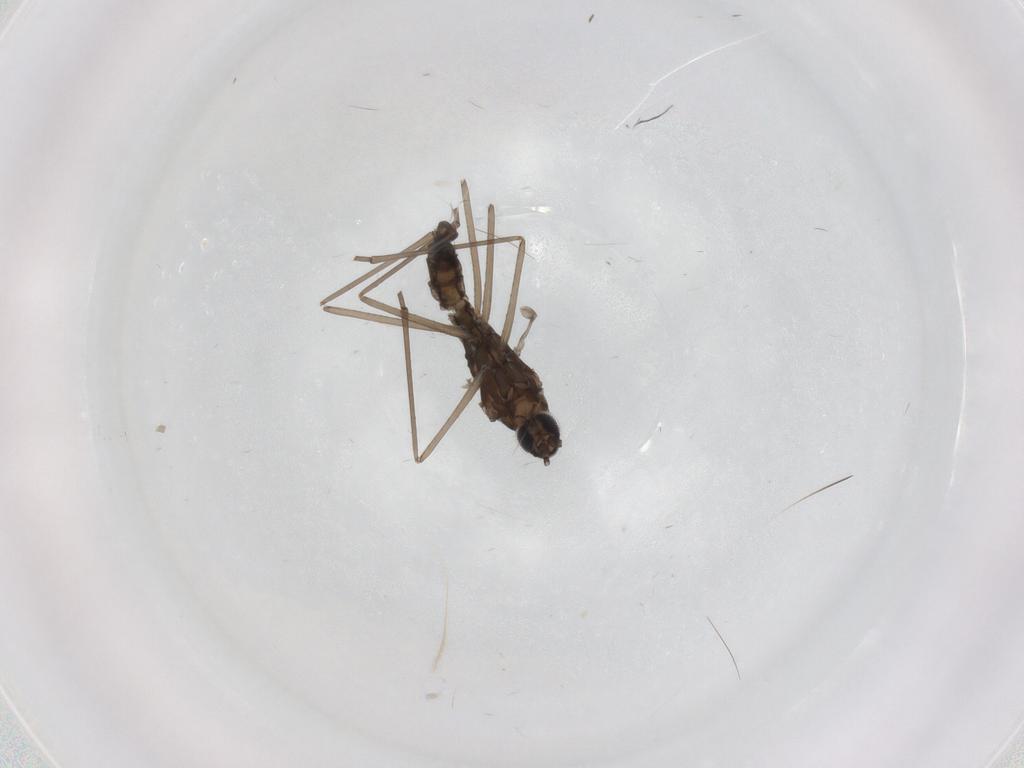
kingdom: Animalia
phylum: Arthropoda
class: Insecta
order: Diptera
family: Cecidomyiidae
